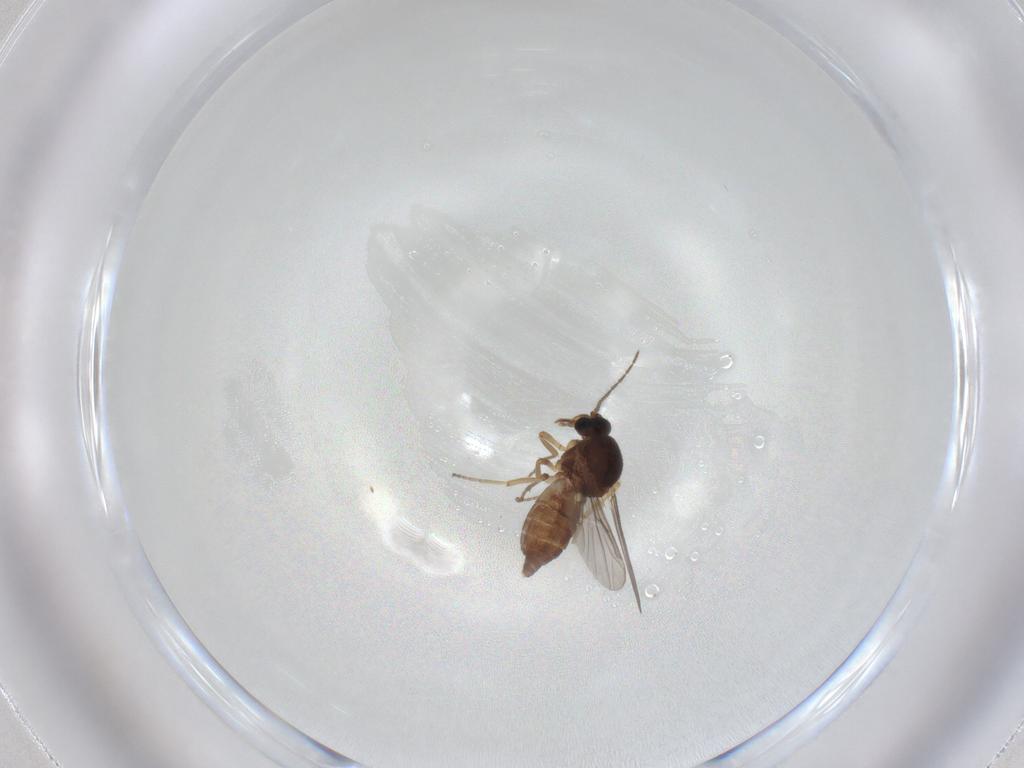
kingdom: Animalia
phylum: Arthropoda
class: Insecta
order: Diptera
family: Ceratopogonidae
